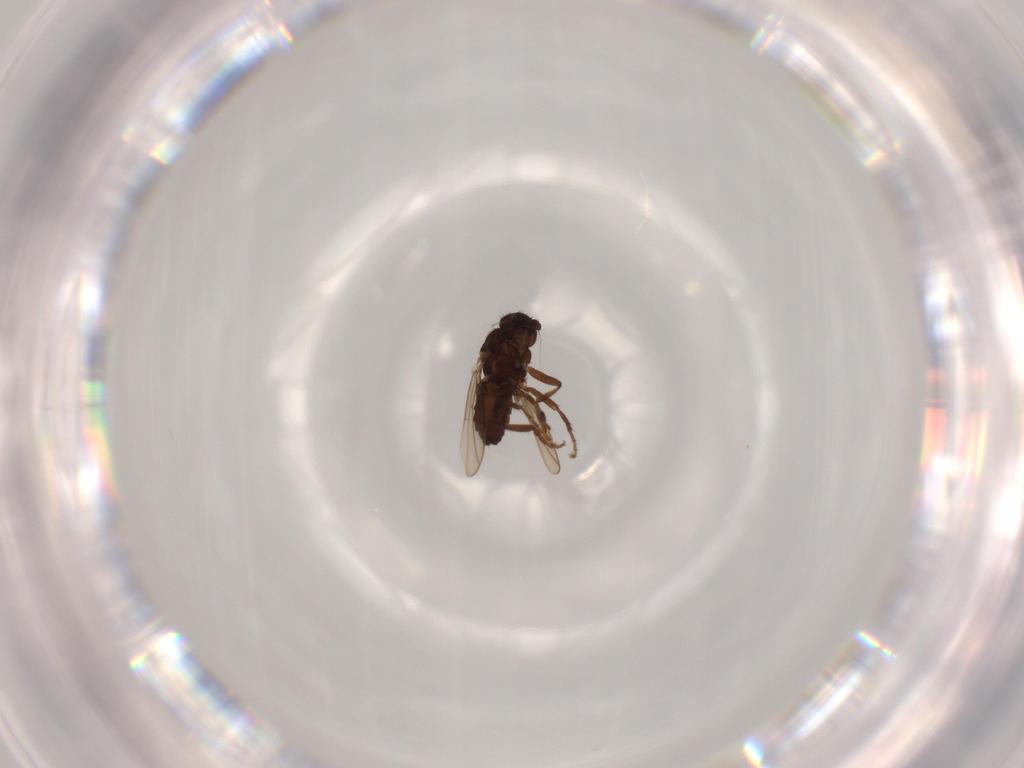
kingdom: Animalia
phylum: Arthropoda
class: Insecta
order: Diptera
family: Sphaeroceridae
